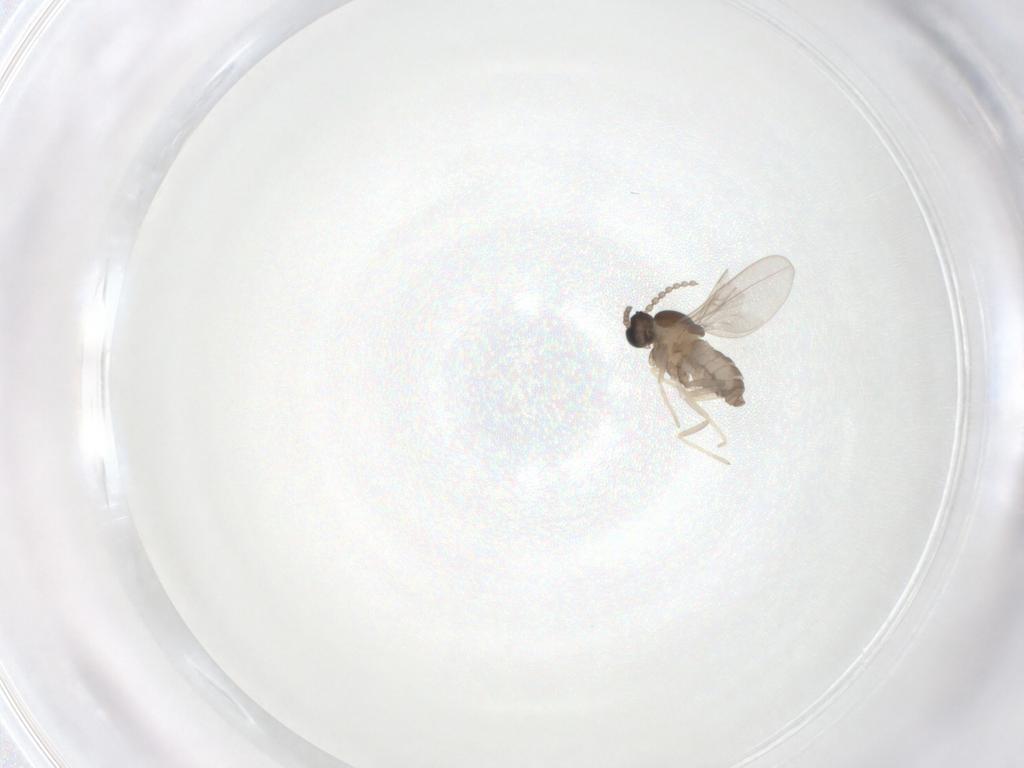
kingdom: Animalia
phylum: Arthropoda
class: Insecta
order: Diptera
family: Cecidomyiidae
